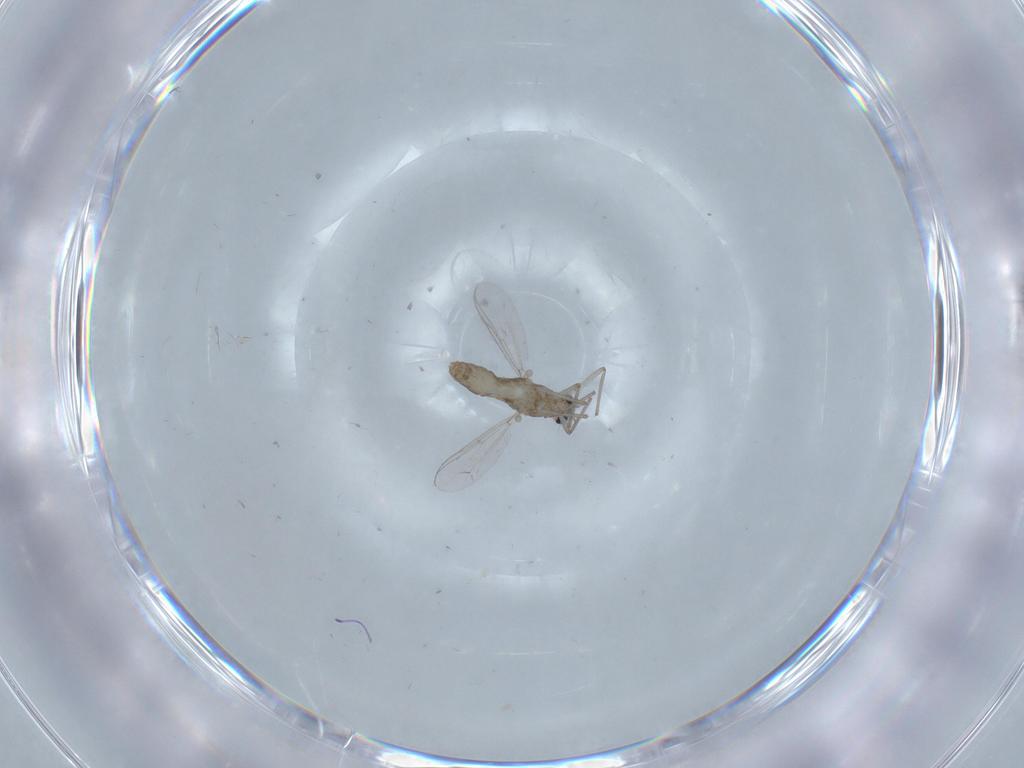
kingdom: Animalia
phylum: Arthropoda
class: Insecta
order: Diptera
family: Chironomidae
